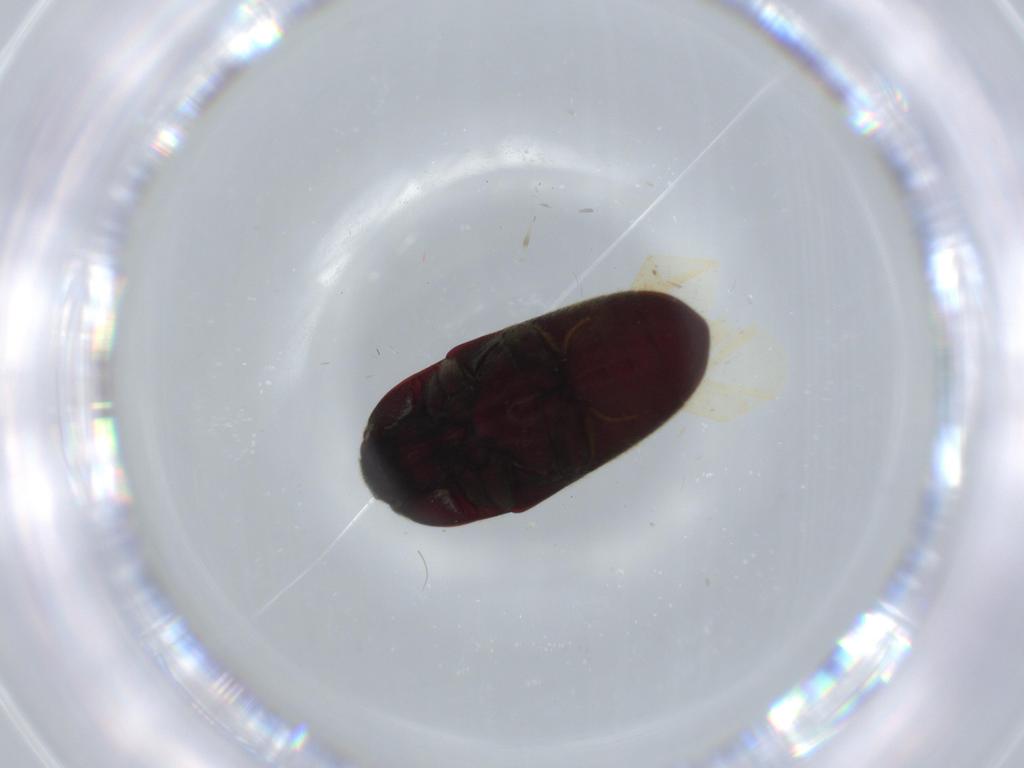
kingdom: Animalia
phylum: Arthropoda
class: Insecta
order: Coleoptera
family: Throscidae
